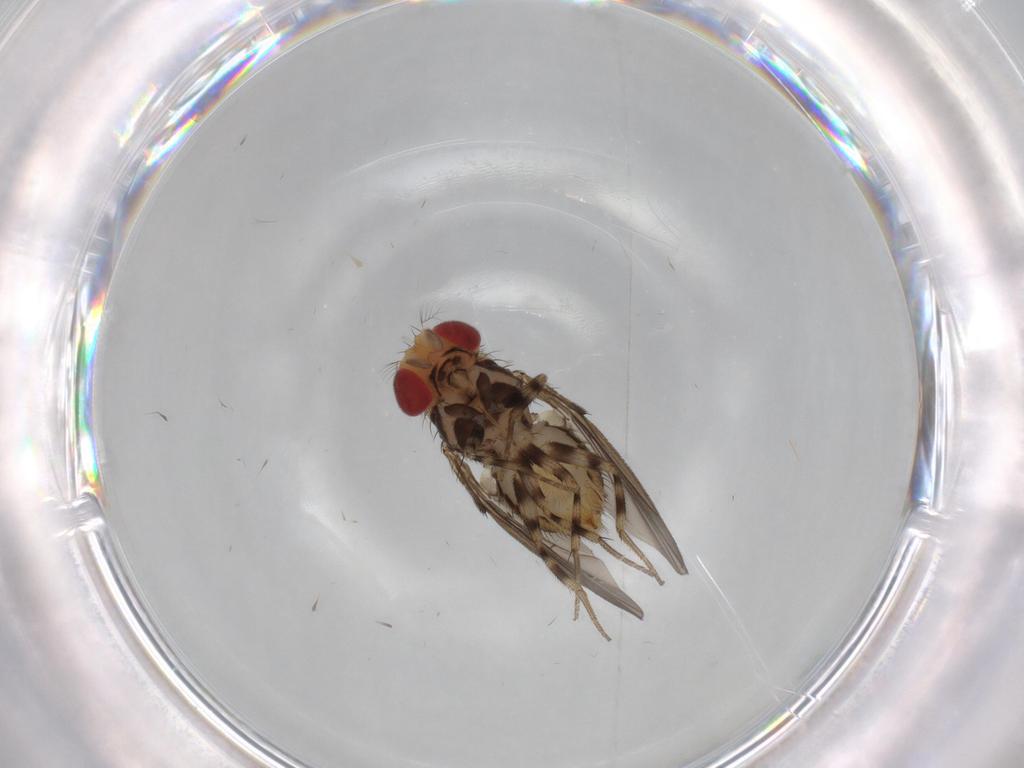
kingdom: Animalia
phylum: Arthropoda
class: Insecta
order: Diptera
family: Drosophilidae
